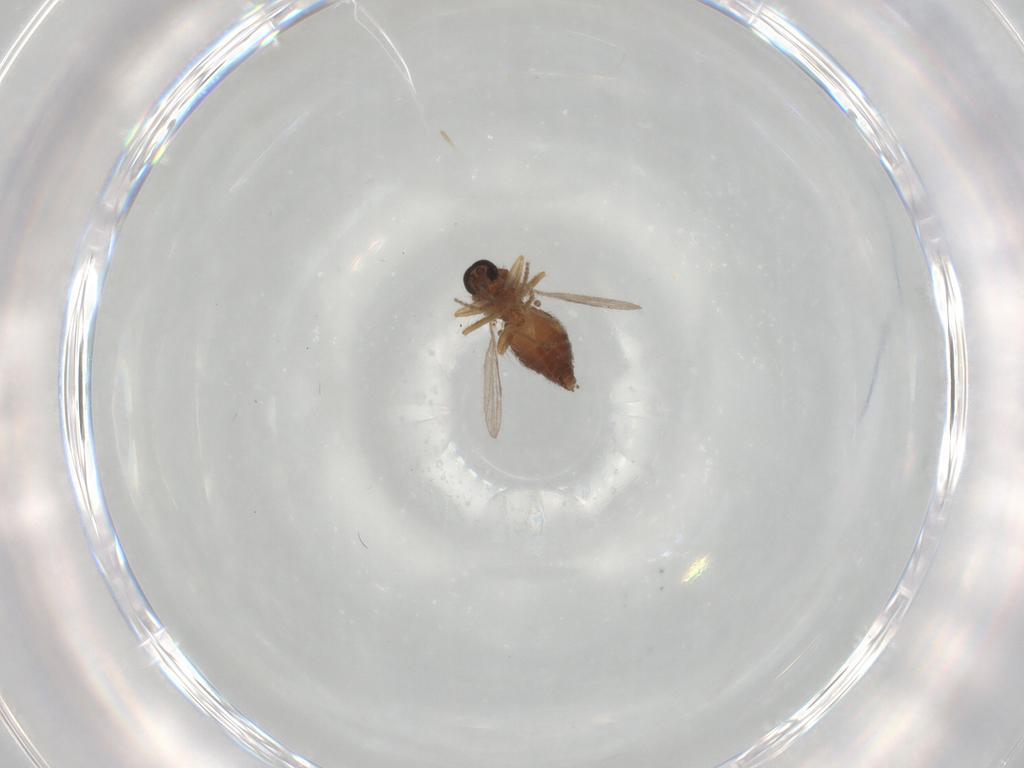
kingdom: Animalia
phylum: Arthropoda
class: Insecta
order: Diptera
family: Ceratopogonidae
